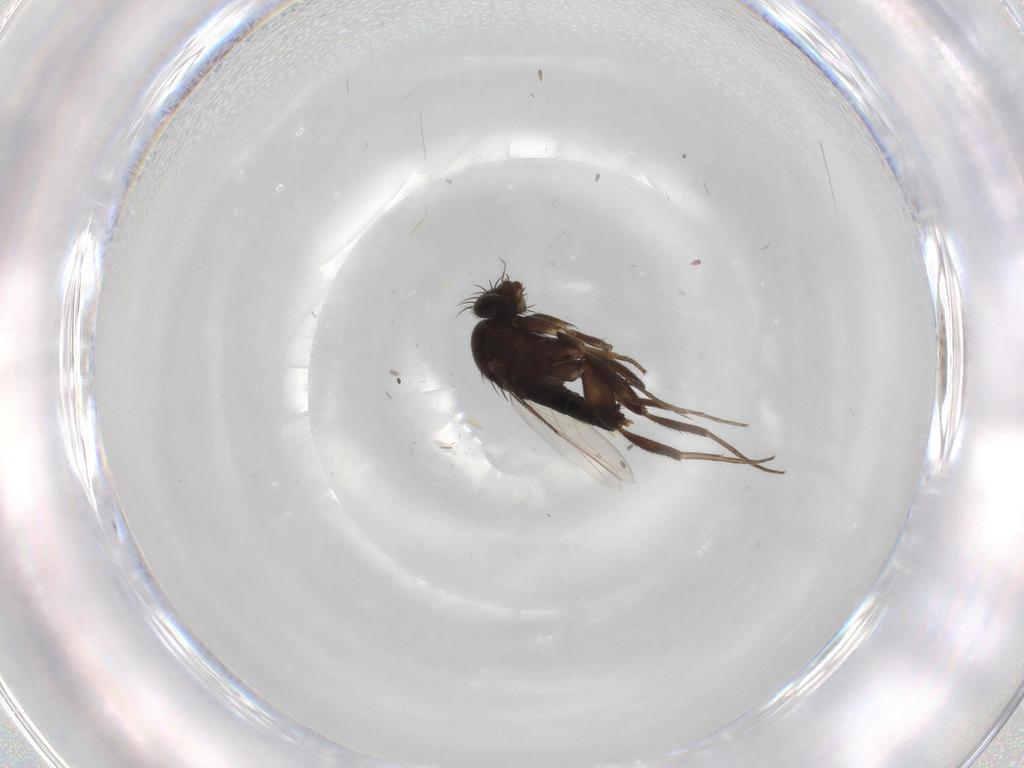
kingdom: Animalia
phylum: Arthropoda
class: Insecta
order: Diptera
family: Phoridae
